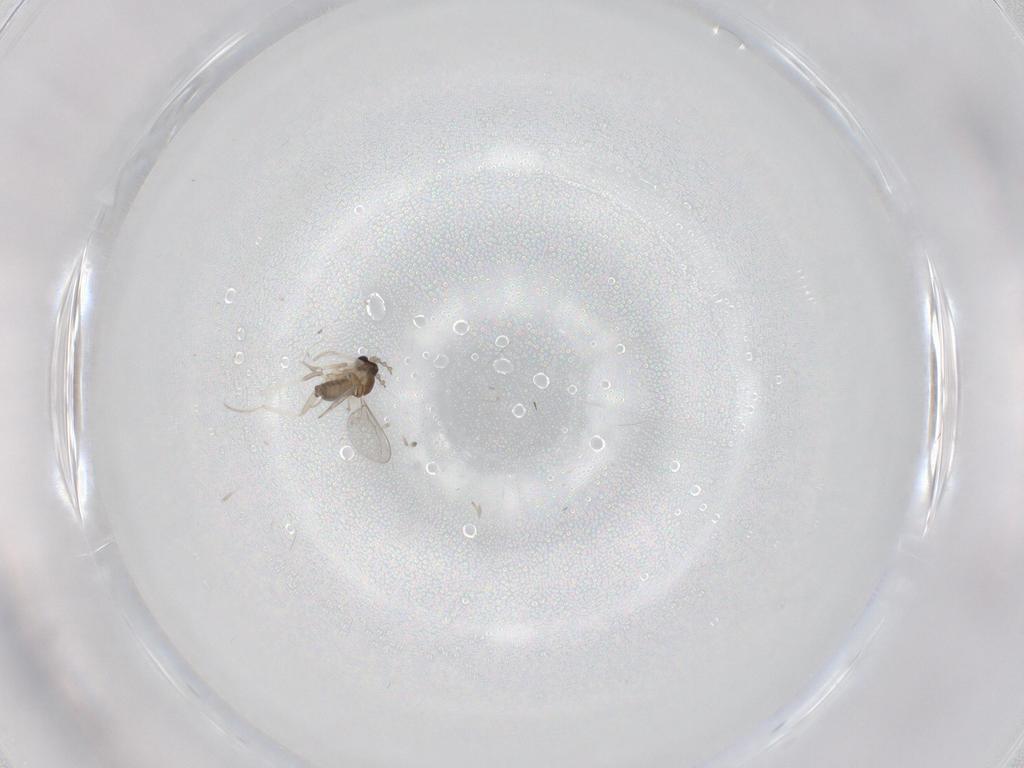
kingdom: Animalia
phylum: Arthropoda
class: Insecta
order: Diptera
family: Cecidomyiidae
